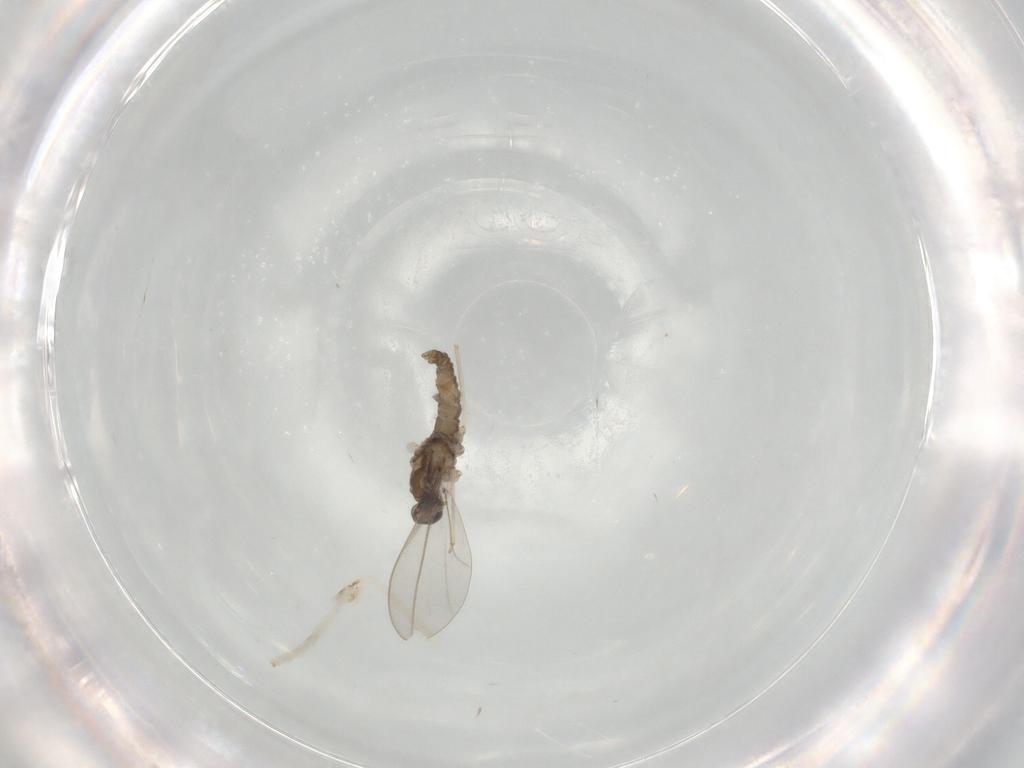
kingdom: Animalia
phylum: Arthropoda
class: Insecta
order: Diptera
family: Cecidomyiidae
